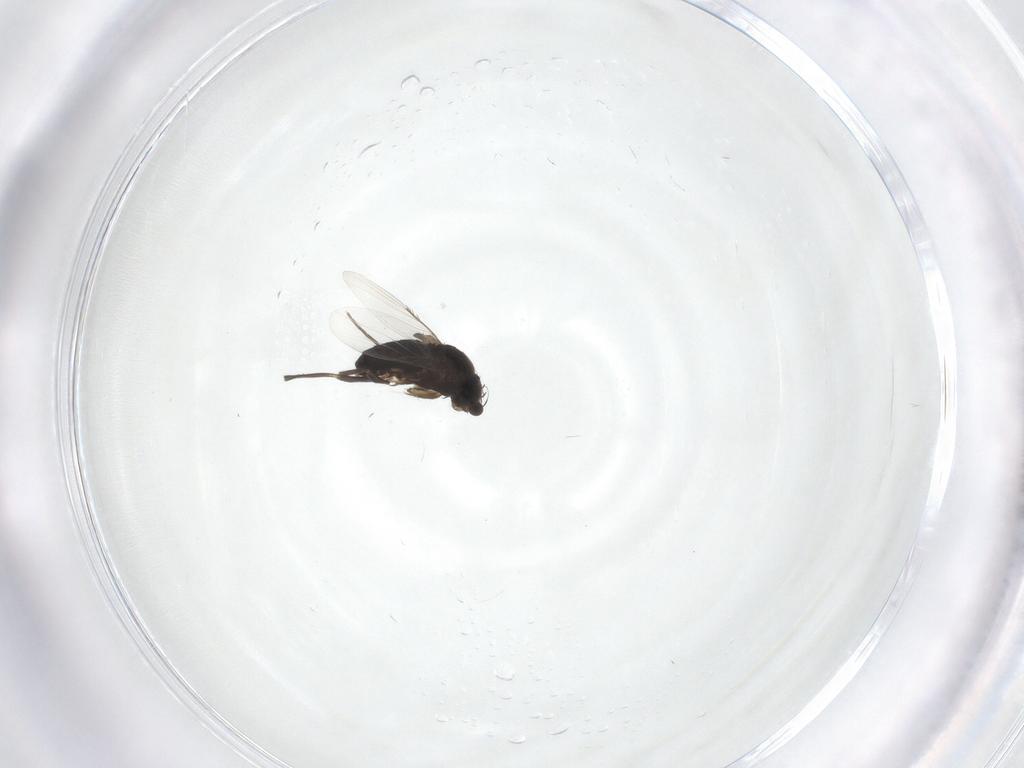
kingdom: Animalia
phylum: Arthropoda
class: Insecta
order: Diptera
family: Phoridae
